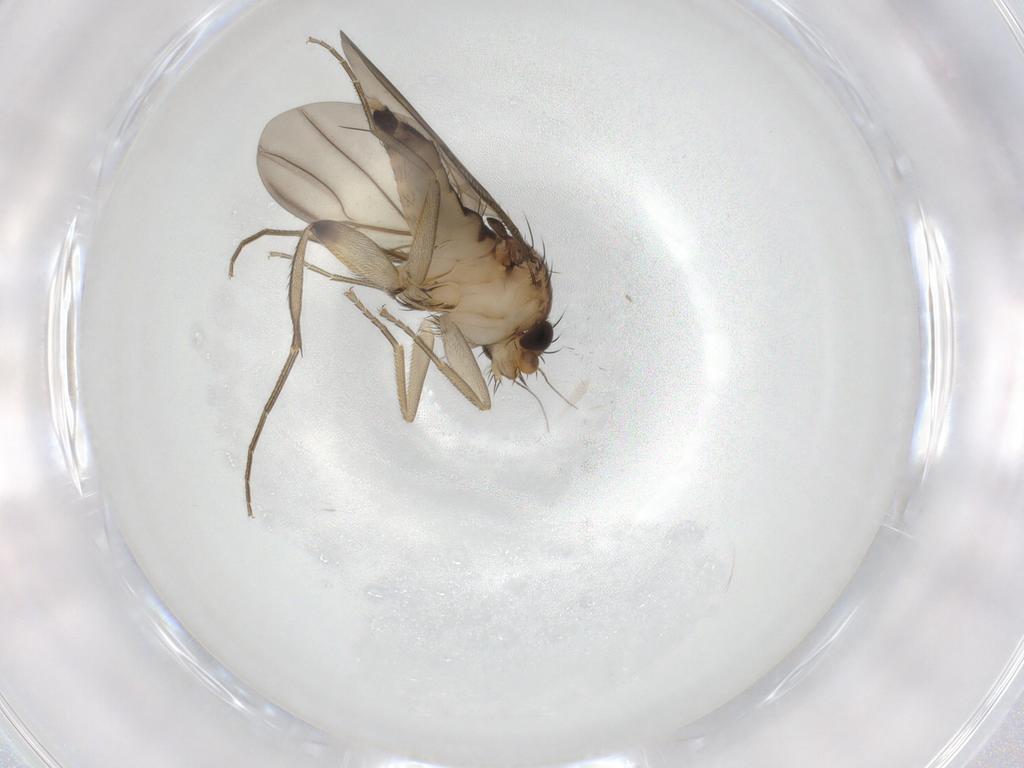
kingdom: Animalia
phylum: Arthropoda
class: Insecta
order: Diptera
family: Phoridae
